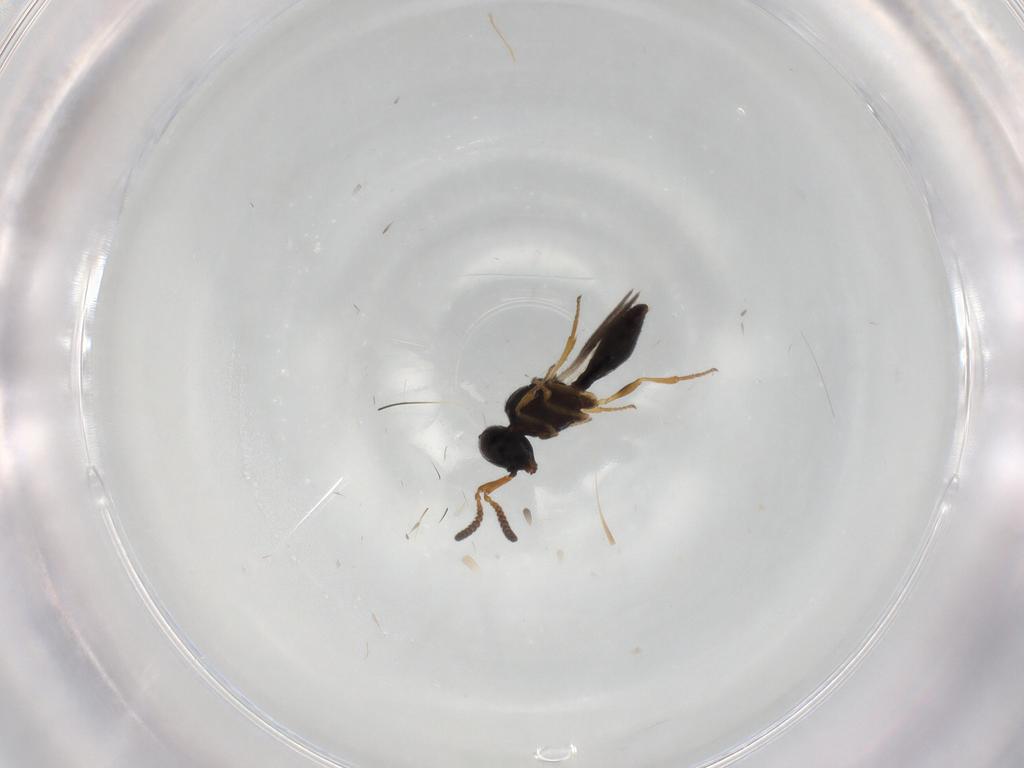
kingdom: Animalia
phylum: Arthropoda
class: Insecta
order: Hymenoptera
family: Scelionidae
